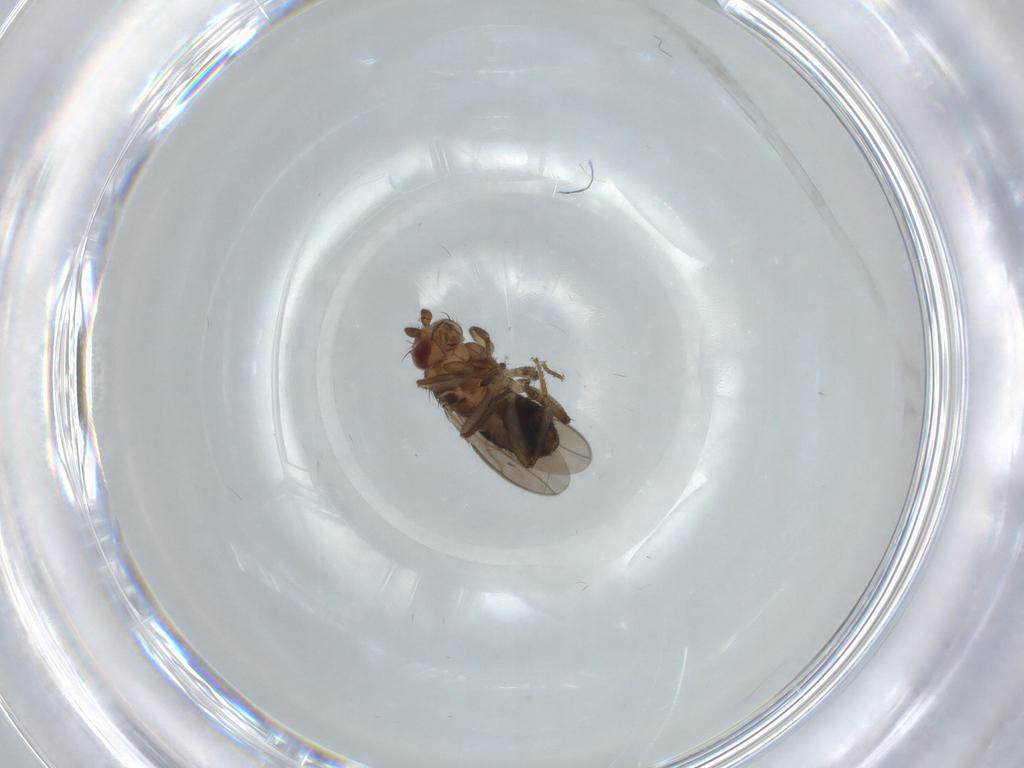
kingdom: Animalia
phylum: Arthropoda
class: Insecta
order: Diptera
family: Sphaeroceridae
